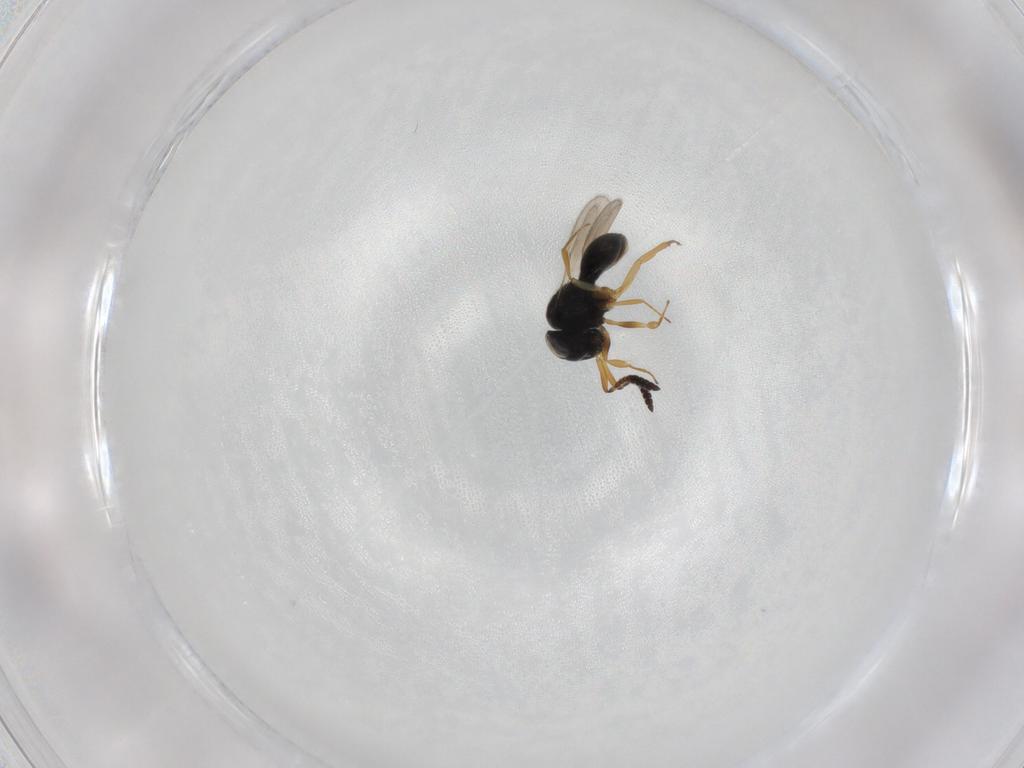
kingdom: Animalia
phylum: Arthropoda
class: Insecta
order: Hymenoptera
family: Scelionidae
